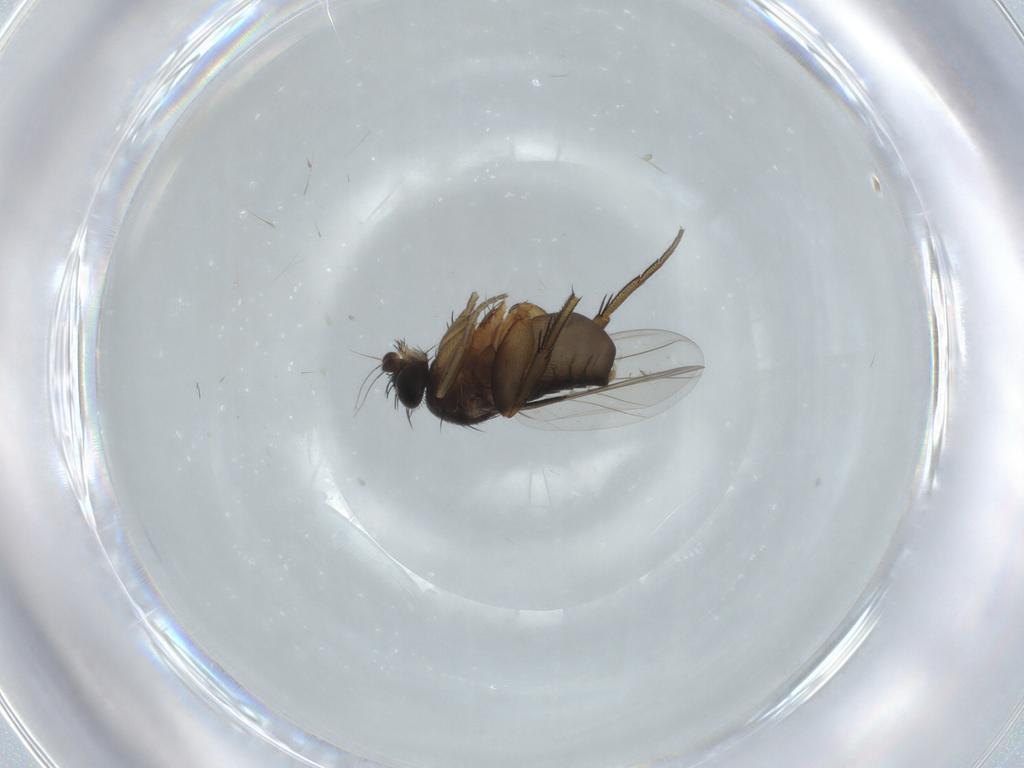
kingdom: Animalia
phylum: Arthropoda
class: Insecta
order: Diptera
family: Phoridae
